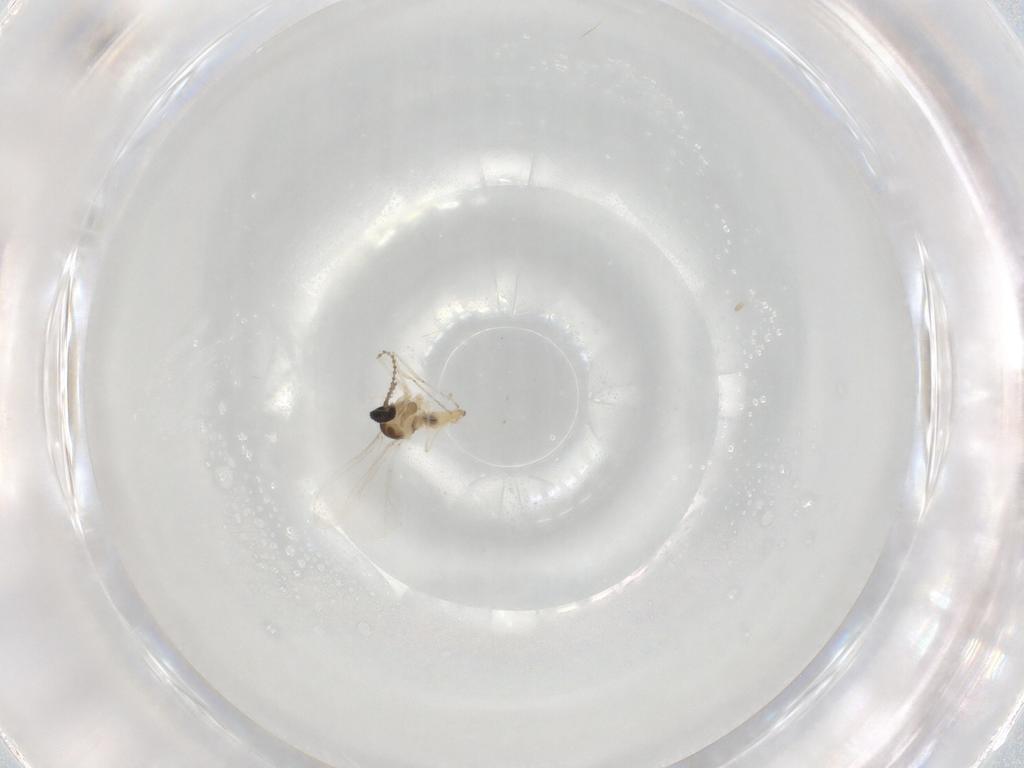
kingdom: Animalia
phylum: Arthropoda
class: Insecta
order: Diptera
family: Cecidomyiidae
